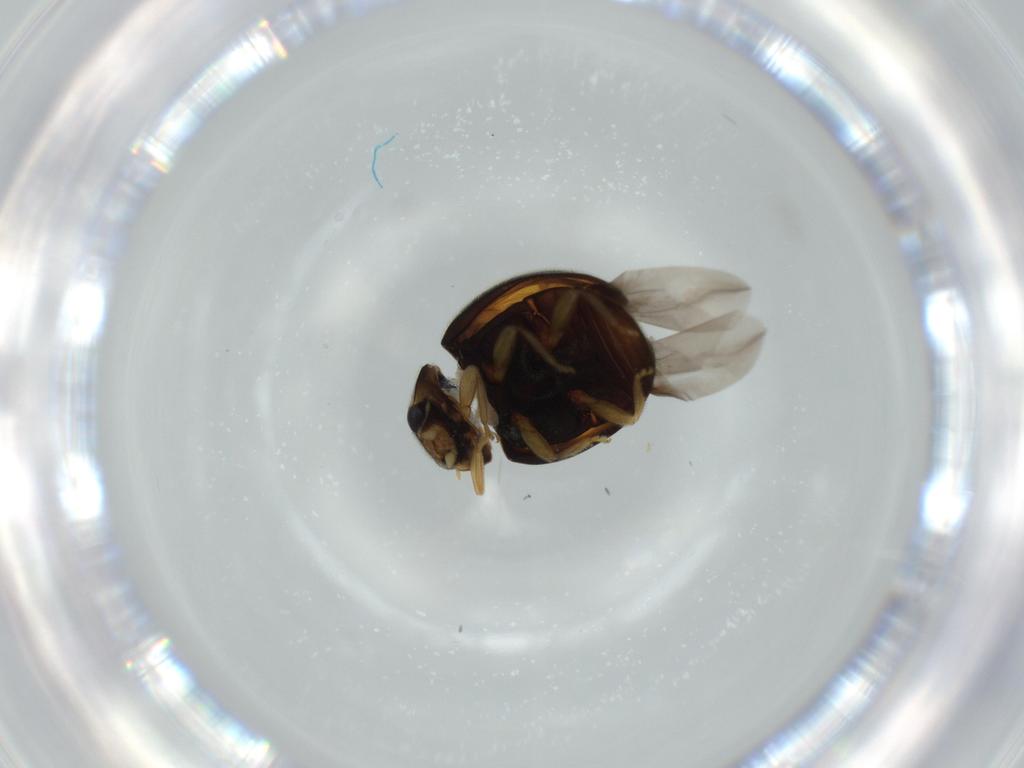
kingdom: Animalia
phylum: Arthropoda
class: Insecta
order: Coleoptera
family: Coccinellidae
